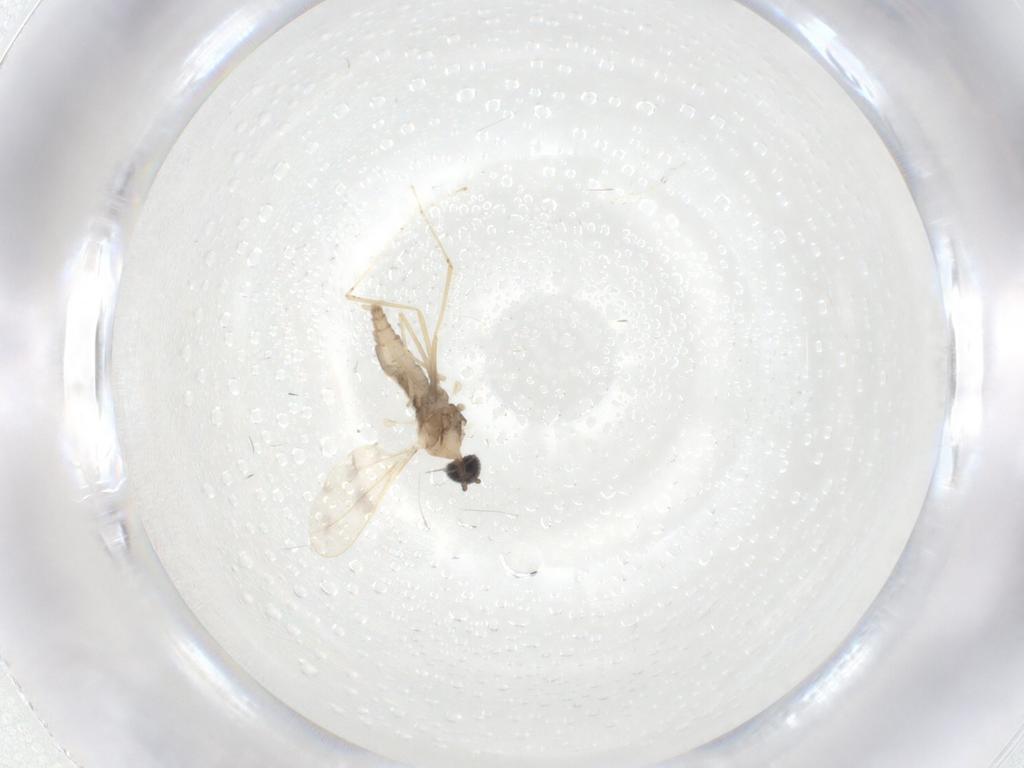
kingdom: Animalia
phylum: Arthropoda
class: Insecta
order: Diptera
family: Cecidomyiidae
